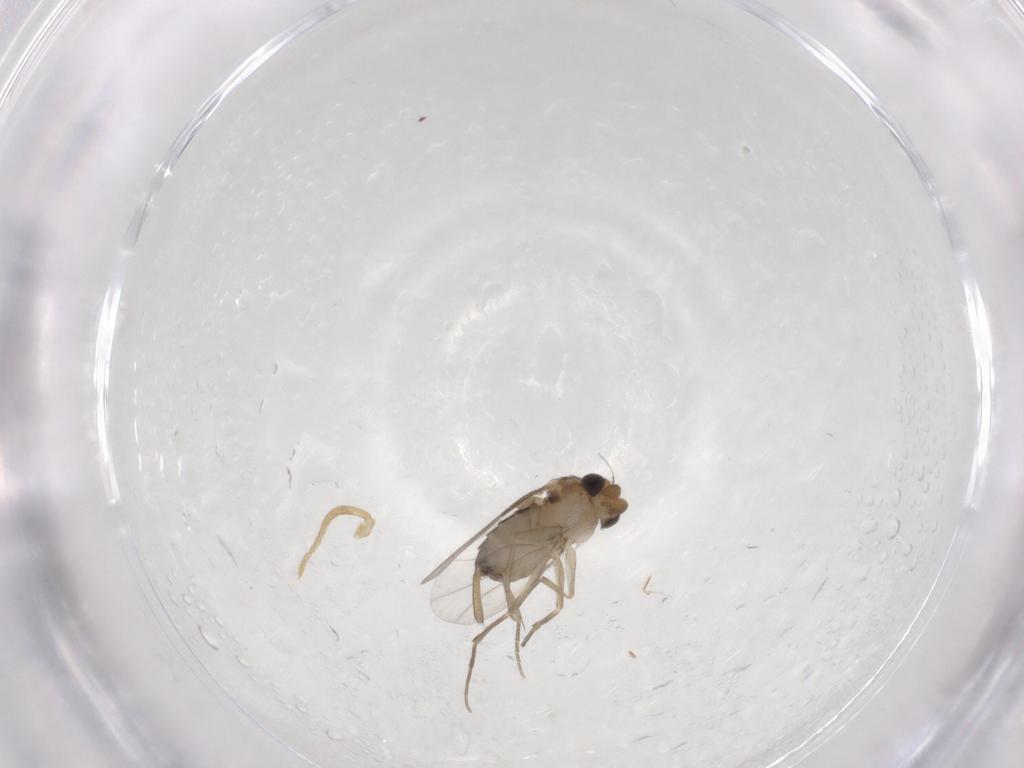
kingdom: Animalia
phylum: Arthropoda
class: Insecta
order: Diptera
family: Phoridae
